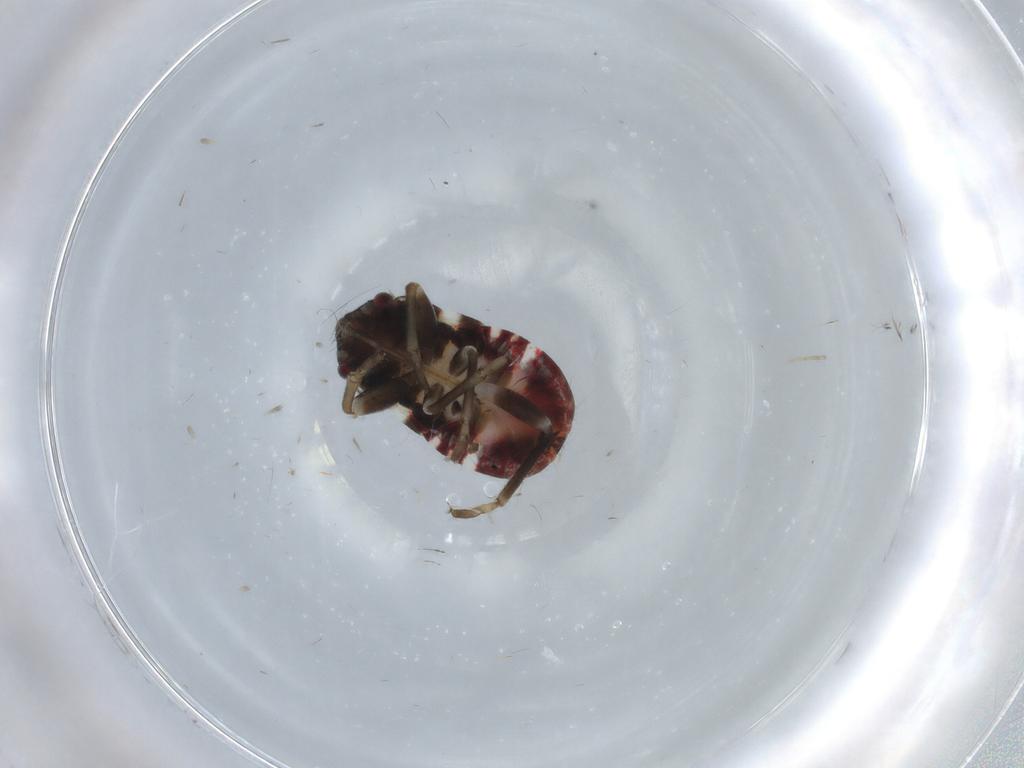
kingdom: Animalia
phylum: Arthropoda
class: Insecta
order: Hemiptera
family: Rhyparochromidae
